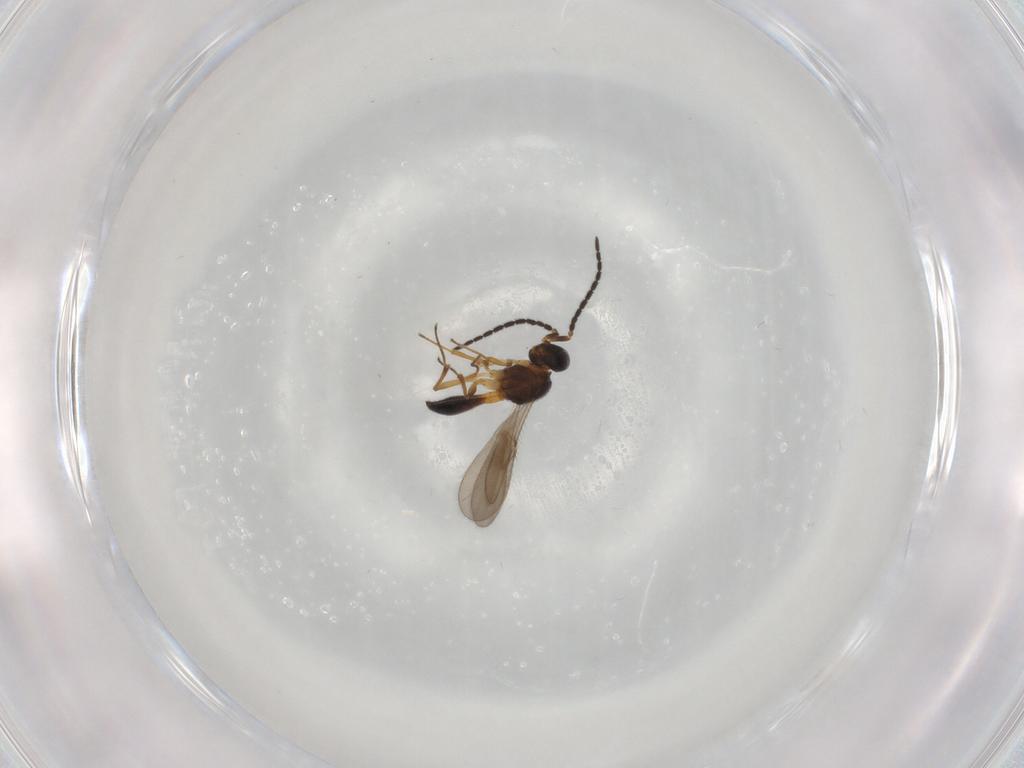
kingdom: Animalia
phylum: Arthropoda
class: Insecta
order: Hymenoptera
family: Scelionidae
